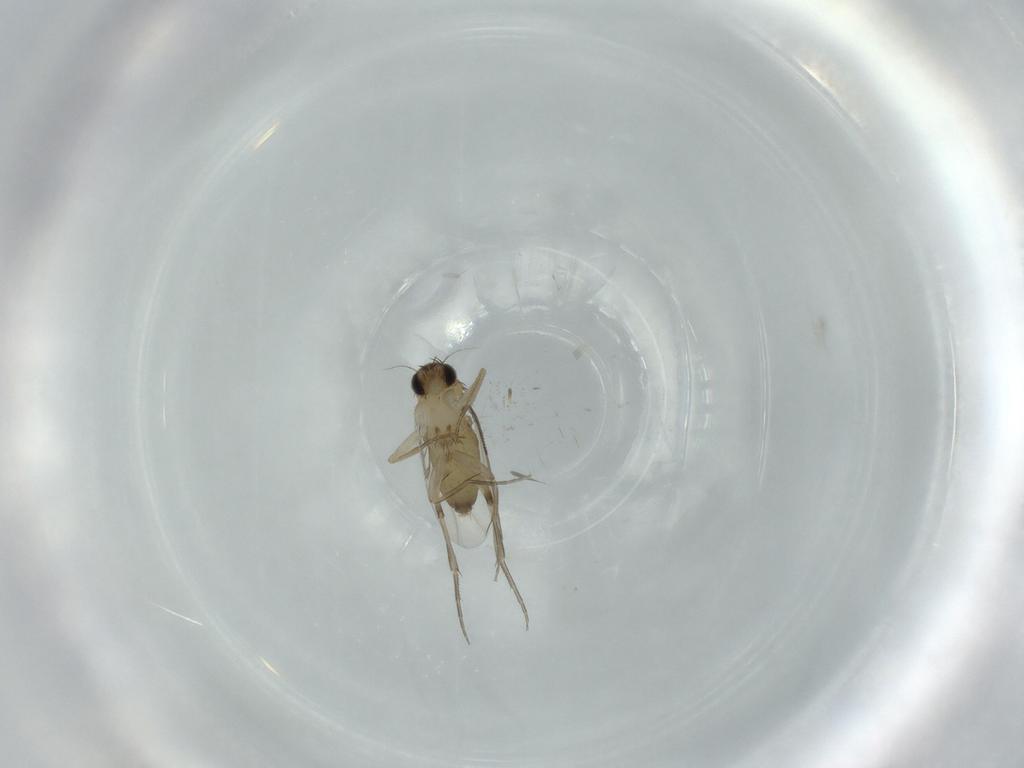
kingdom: Animalia
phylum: Arthropoda
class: Insecta
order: Diptera
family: Phoridae
